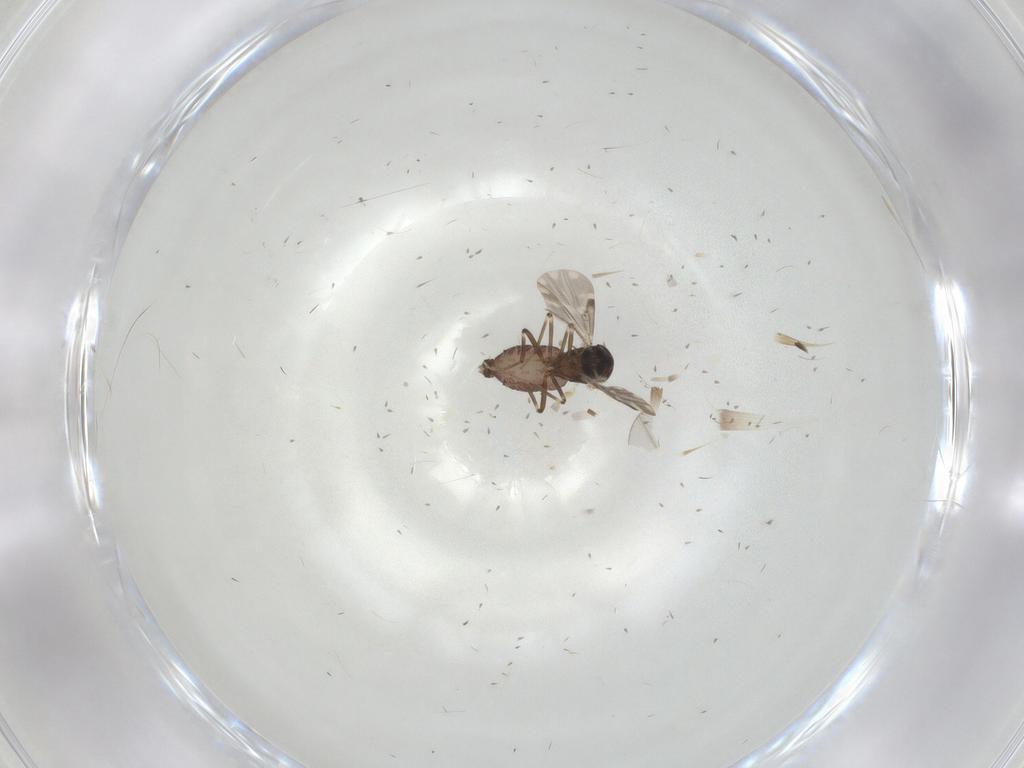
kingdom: Animalia
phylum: Arthropoda
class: Insecta
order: Diptera
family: Ceratopogonidae
